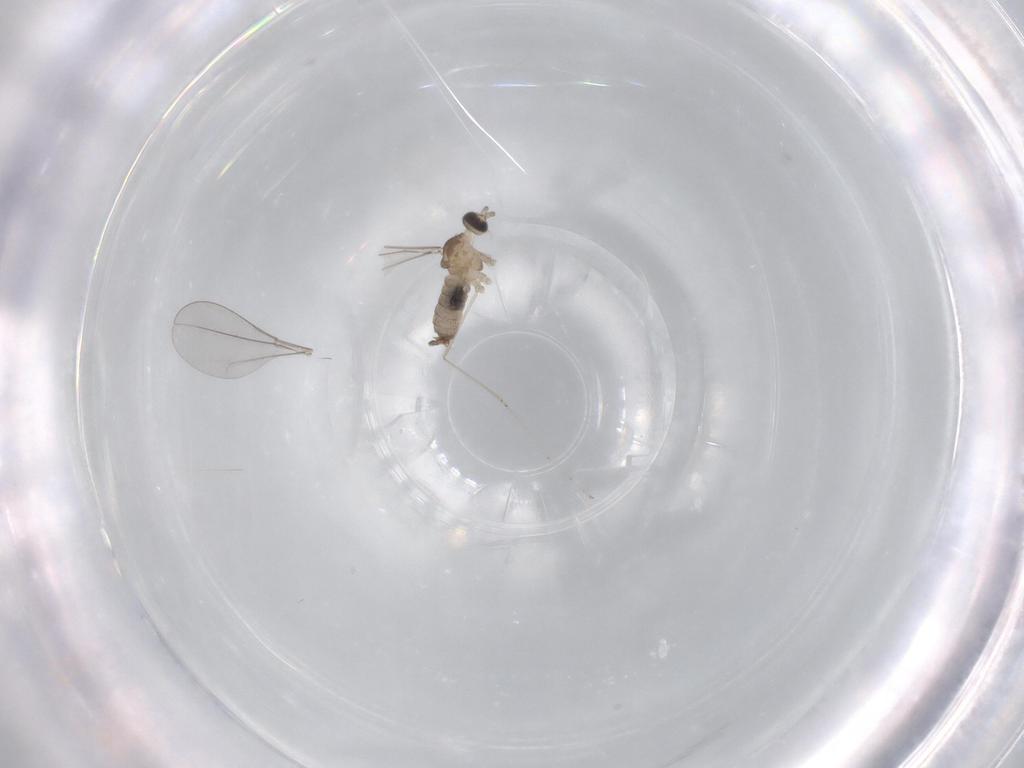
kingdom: Animalia
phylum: Arthropoda
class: Insecta
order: Diptera
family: Cecidomyiidae
